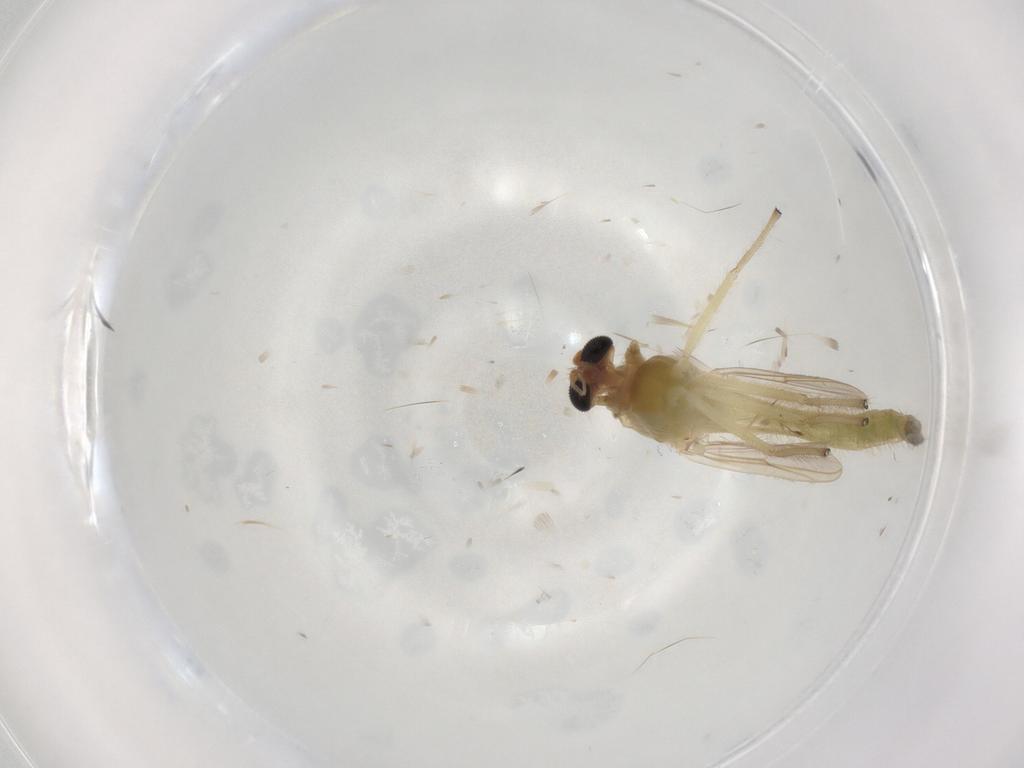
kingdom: Animalia
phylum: Arthropoda
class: Insecta
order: Diptera
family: Chironomidae
